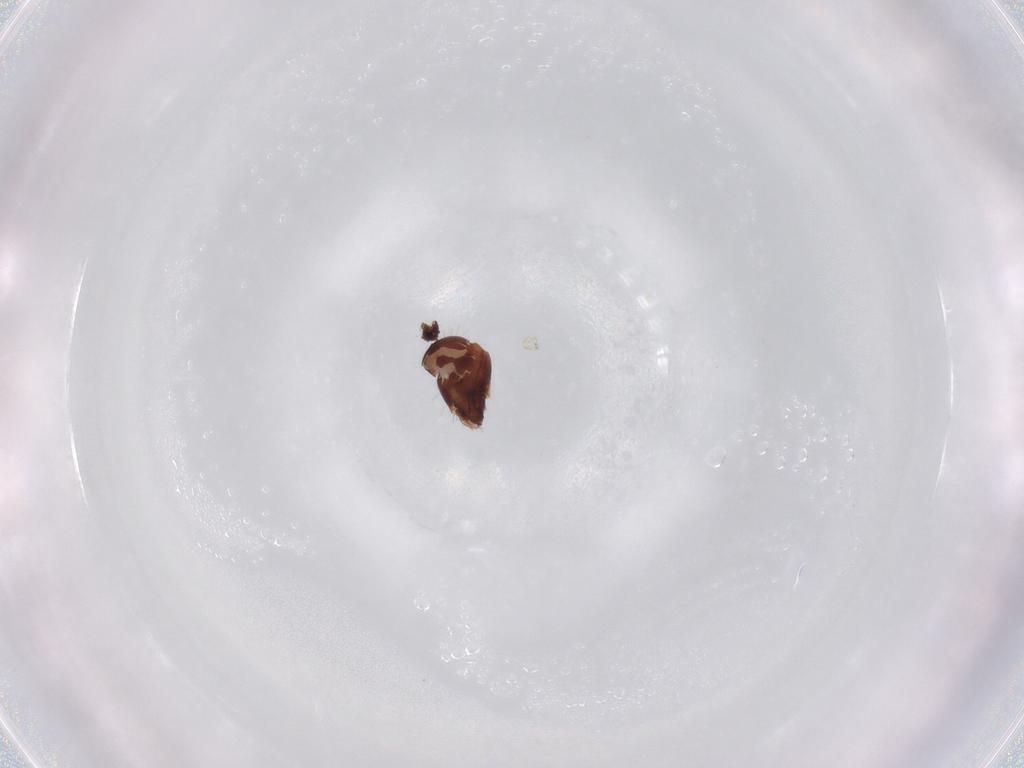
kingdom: Animalia
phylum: Arthropoda
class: Arachnida
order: Sarcoptiformes
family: Humerobatidae
